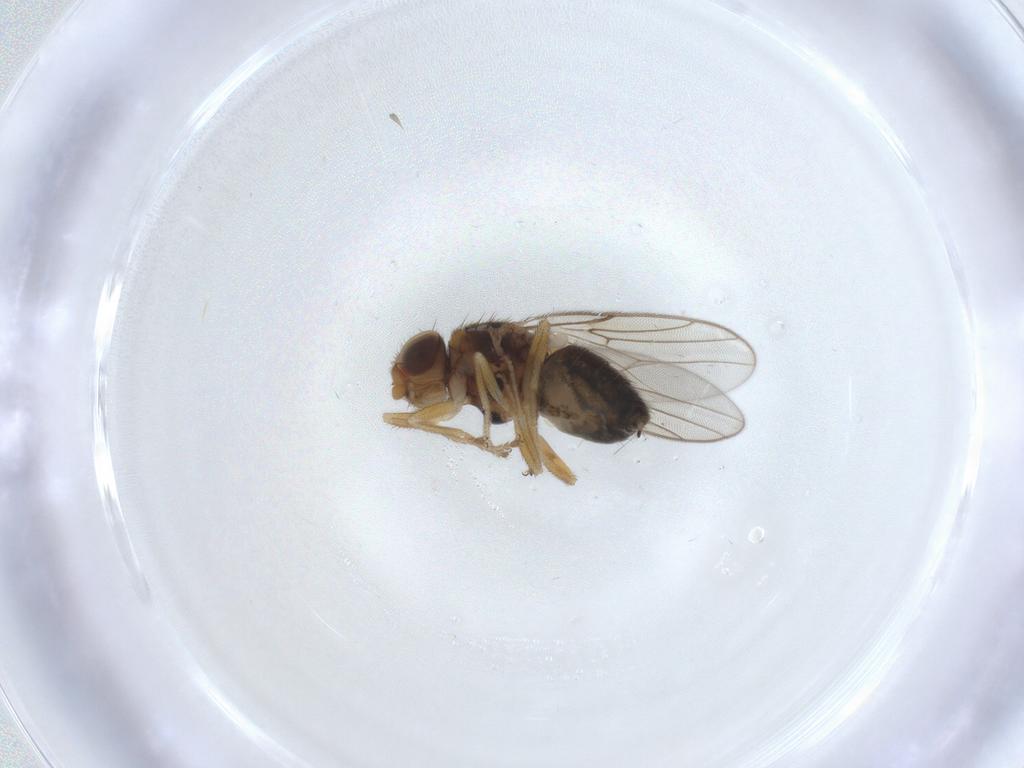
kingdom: Animalia
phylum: Arthropoda
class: Insecta
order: Diptera
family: Chloropidae
